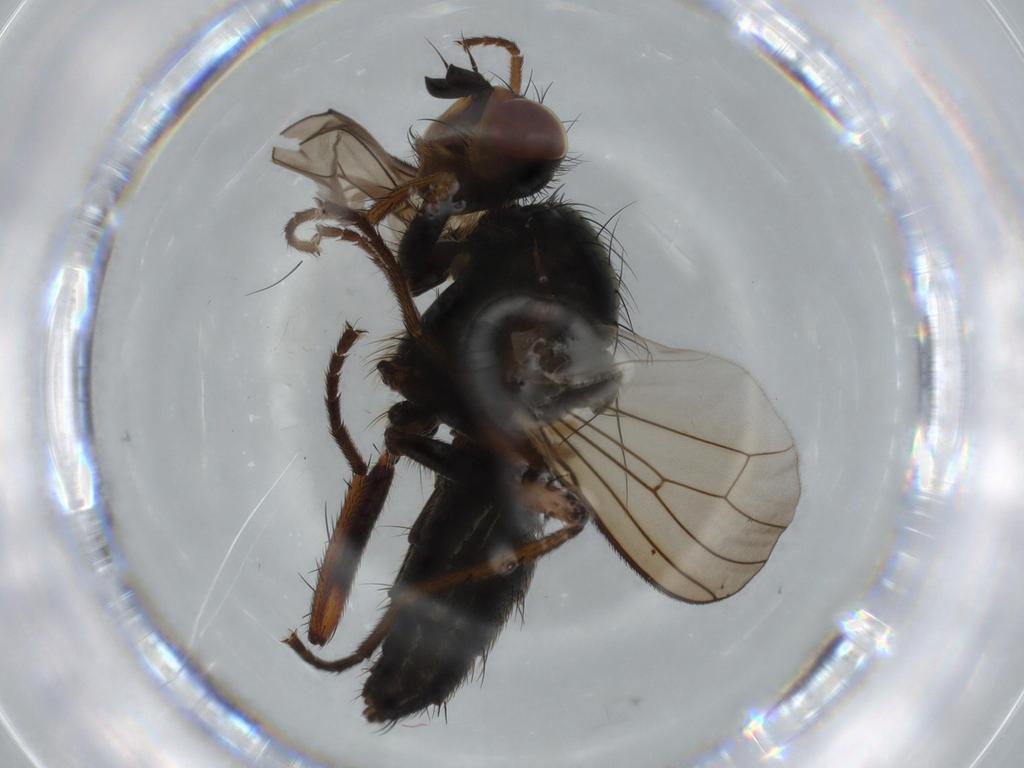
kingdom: Animalia
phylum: Arthropoda
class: Insecta
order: Diptera
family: Scathophagidae
